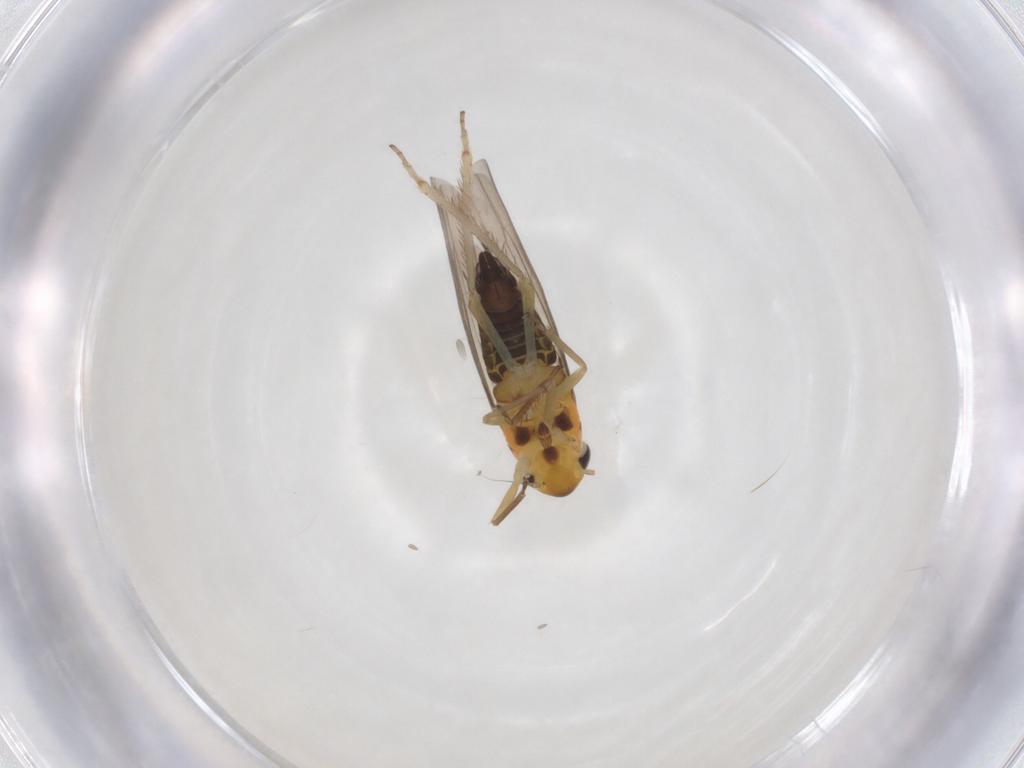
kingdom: Animalia
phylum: Arthropoda
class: Insecta
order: Hemiptera
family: Cicadellidae
